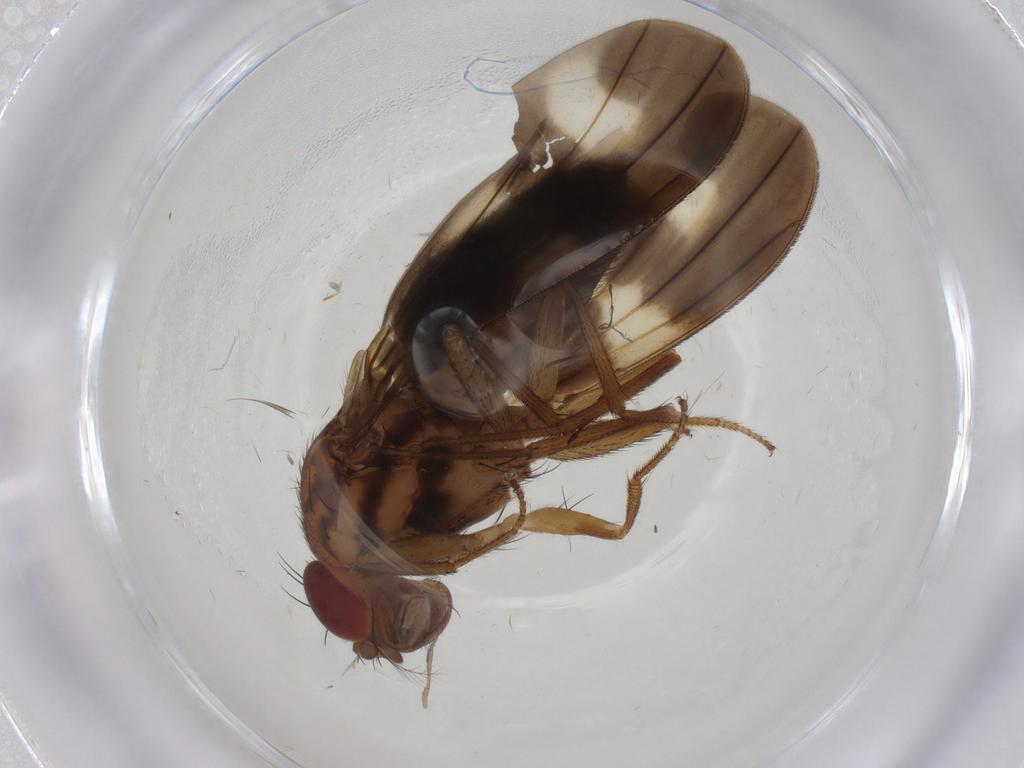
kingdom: Animalia
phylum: Arthropoda
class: Insecta
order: Diptera
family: Drosophilidae
